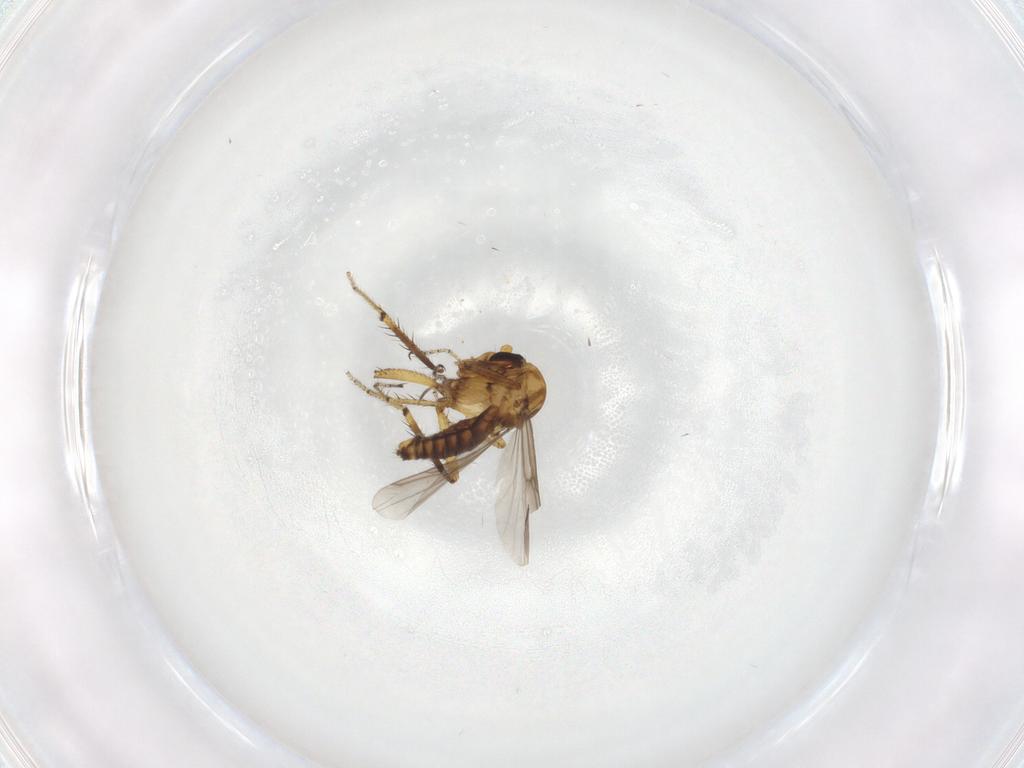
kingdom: Animalia
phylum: Arthropoda
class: Insecta
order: Diptera
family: Ceratopogonidae
